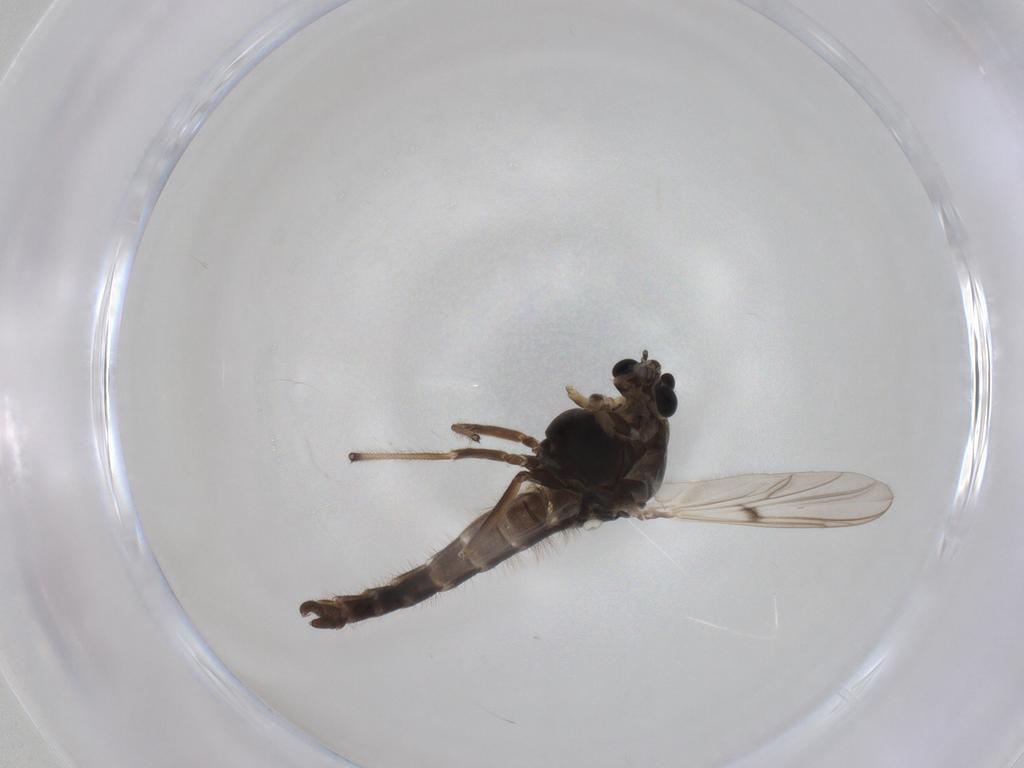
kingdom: Animalia
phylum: Arthropoda
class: Insecta
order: Diptera
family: Chironomidae
